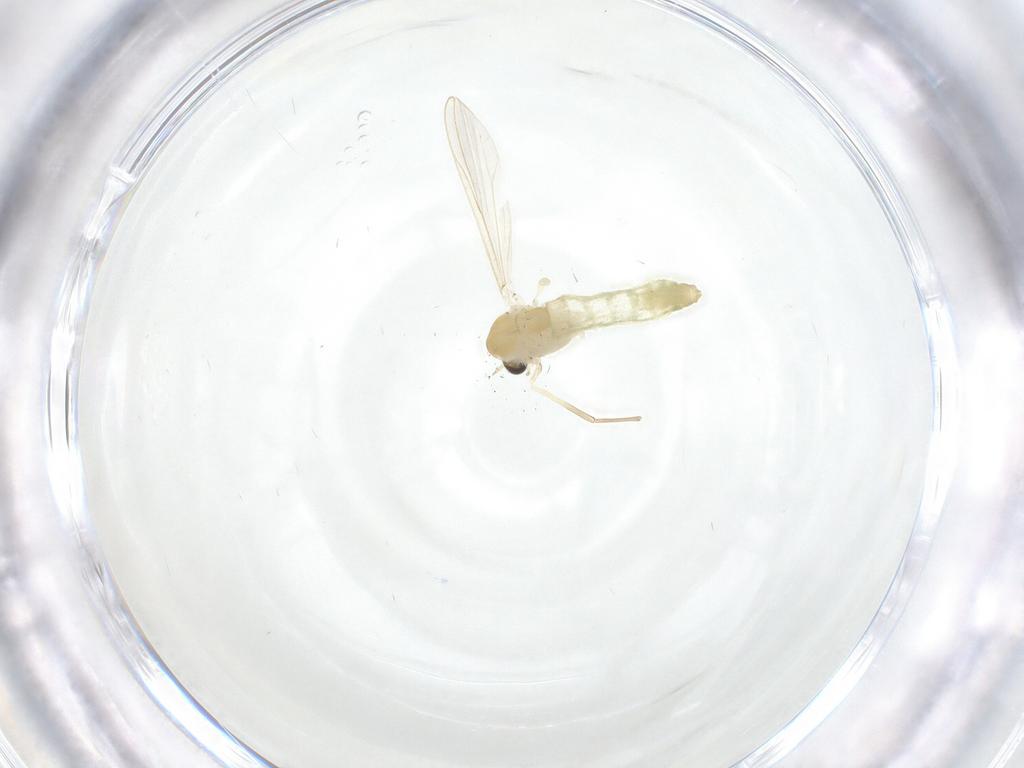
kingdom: Animalia
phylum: Arthropoda
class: Insecta
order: Diptera
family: Chironomidae
